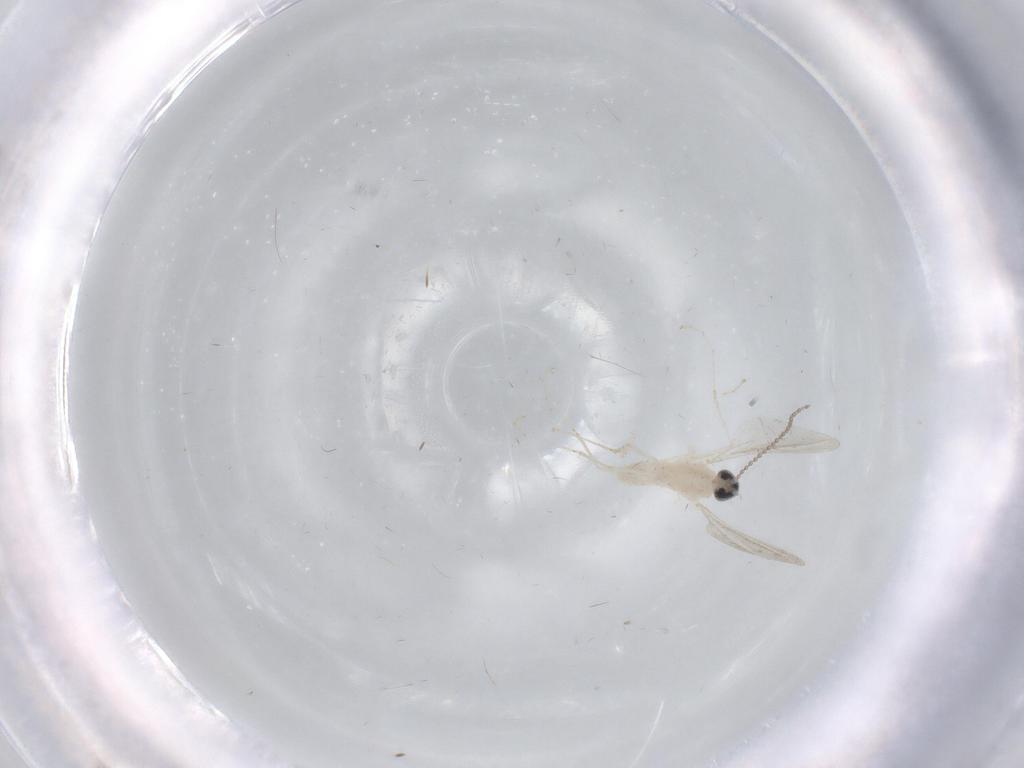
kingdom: Animalia
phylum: Arthropoda
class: Insecta
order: Diptera
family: Cecidomyiidae
